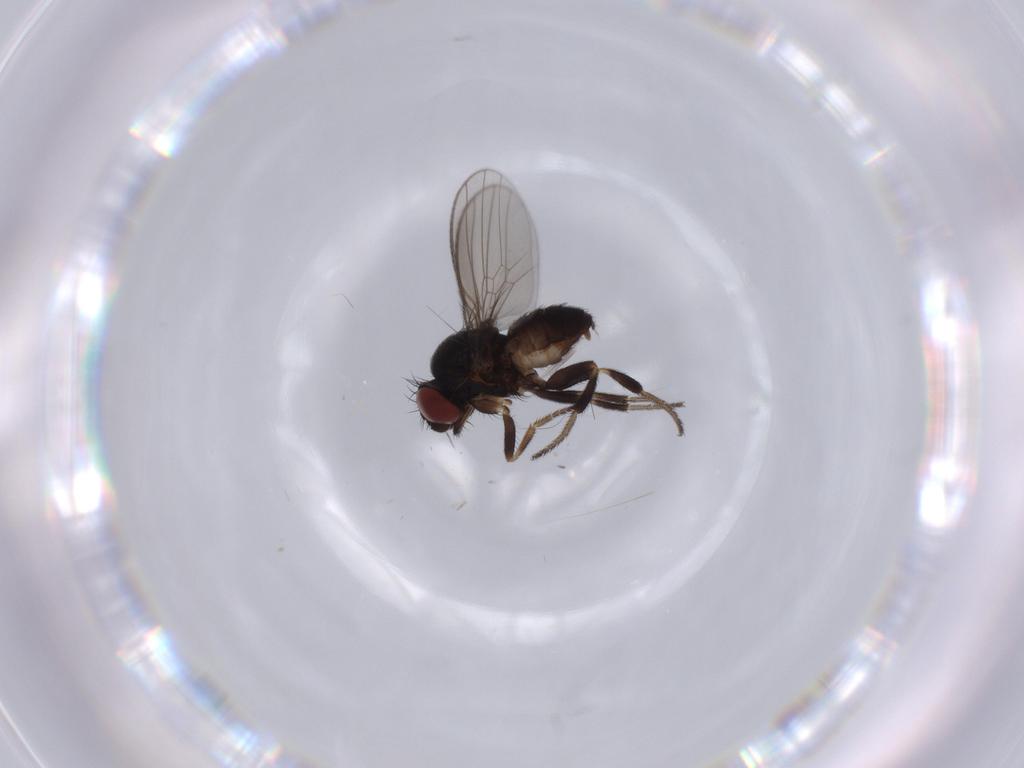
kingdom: Animalia
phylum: Arthropoda
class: Insecta
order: Diptera
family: Milichiidae
